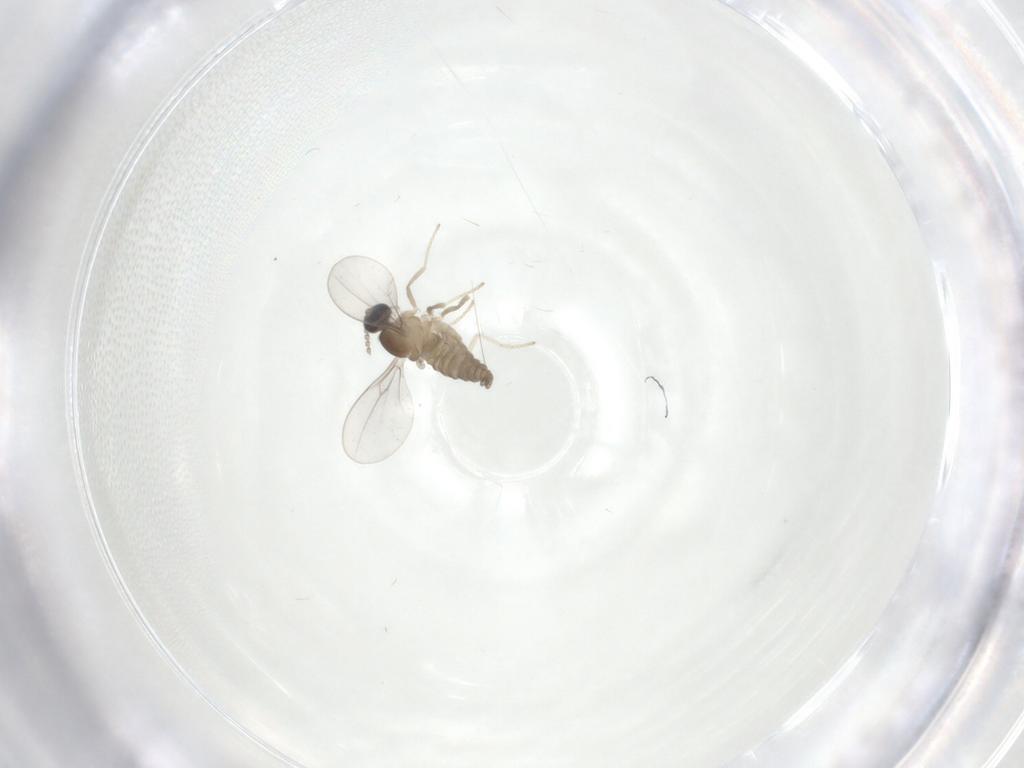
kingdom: Animalia
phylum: Arthropoda
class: Insecta
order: Diptera
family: Cecidomyiidae
